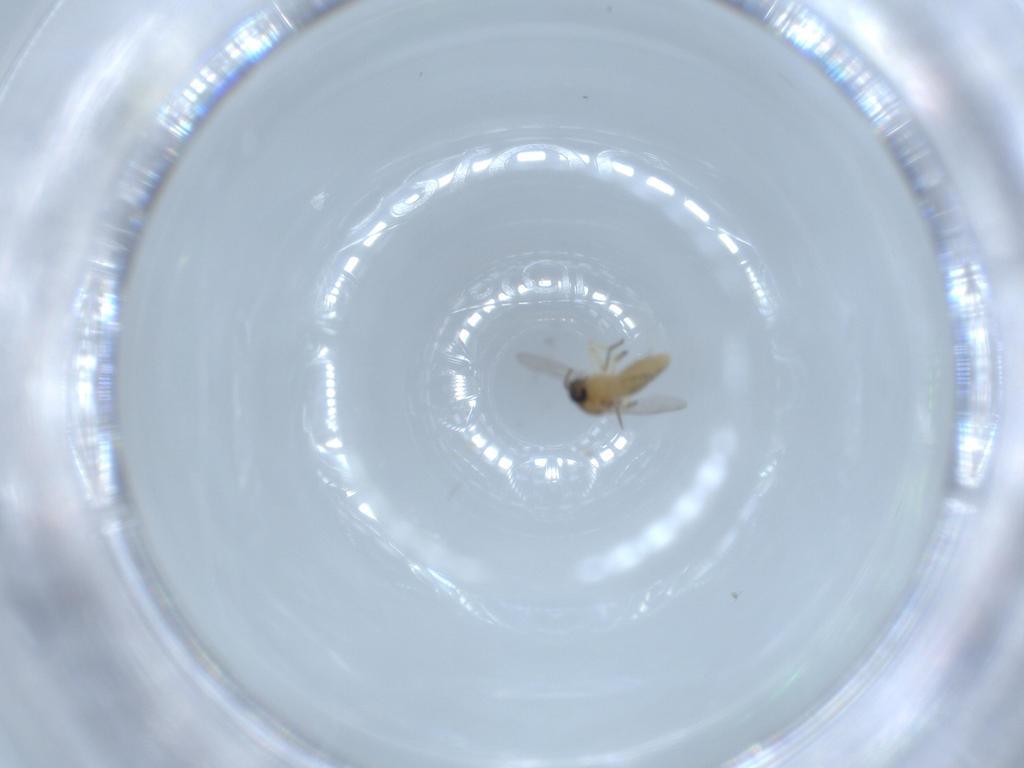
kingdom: Animalia
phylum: Arthropoda
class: Insecta
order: Diptera
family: Ceratopogonidae
